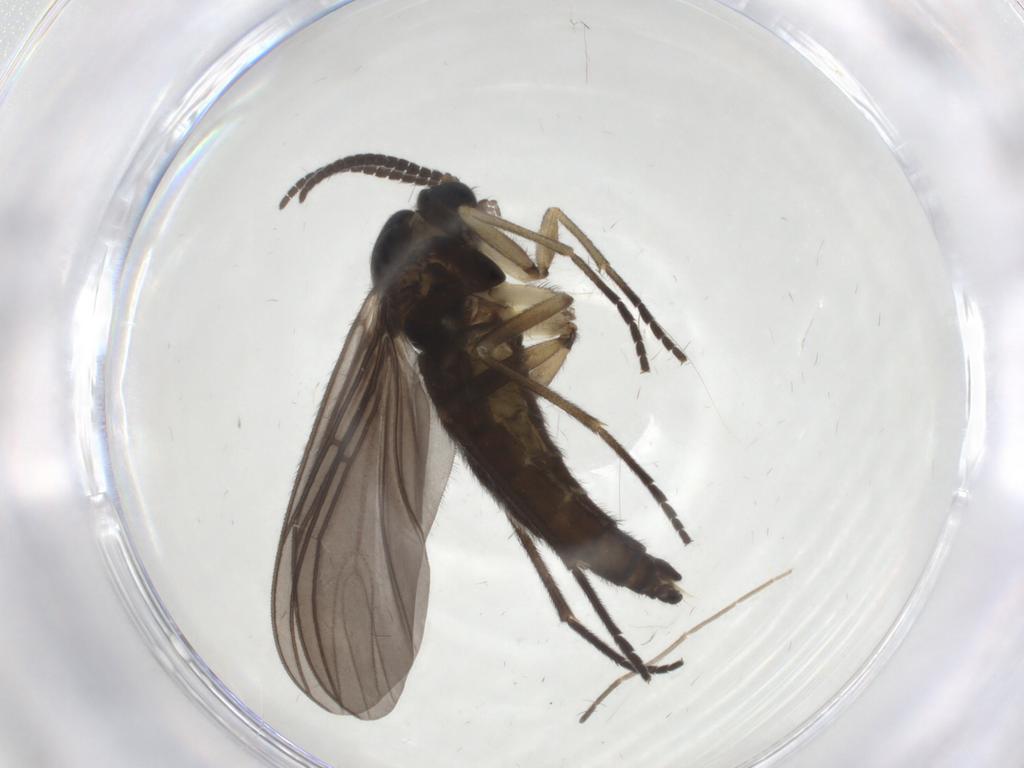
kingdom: Animalia
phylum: Arthropoda
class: Insecta
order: Diptera
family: Sciaridae
